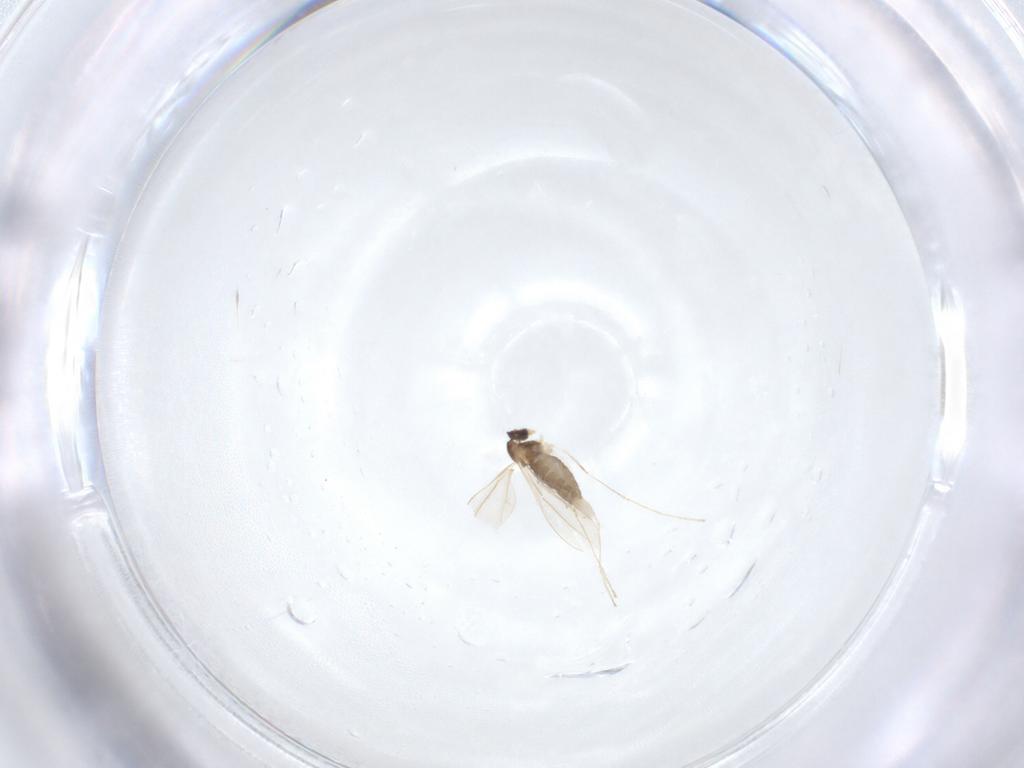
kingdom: Animalia
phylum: Arthropoda
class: Insecta
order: Diptera
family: Cecidomyiidae
